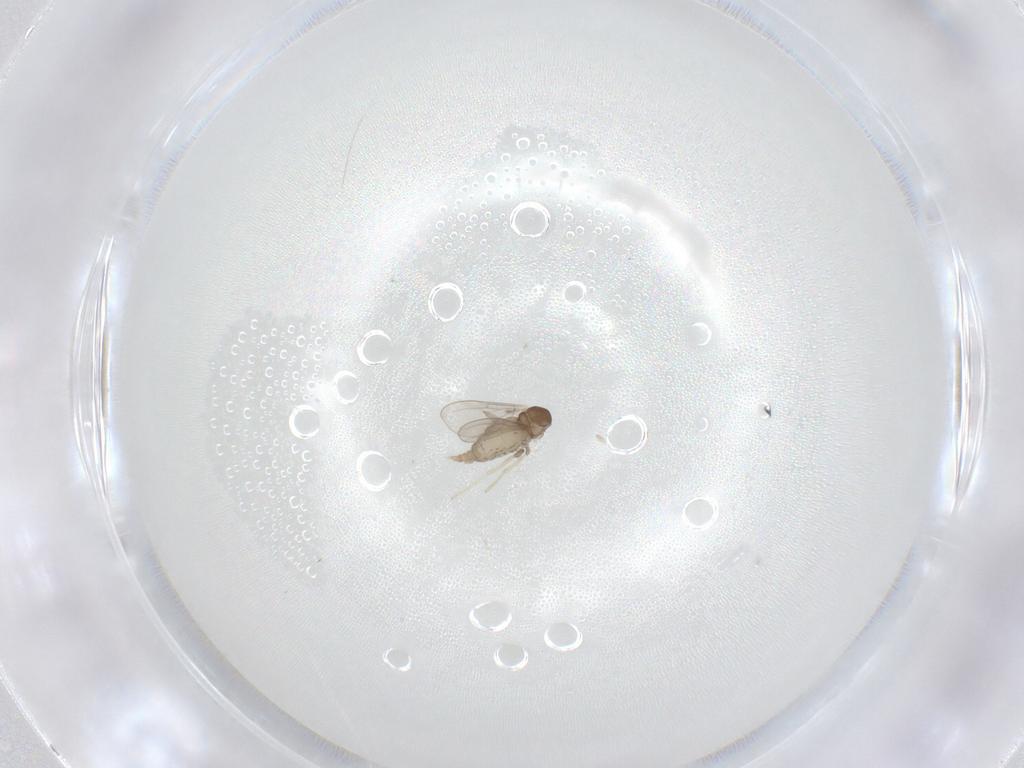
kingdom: Animalia
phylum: Arthropoda
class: Insecta
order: Diptera
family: Cecidomyiidae
